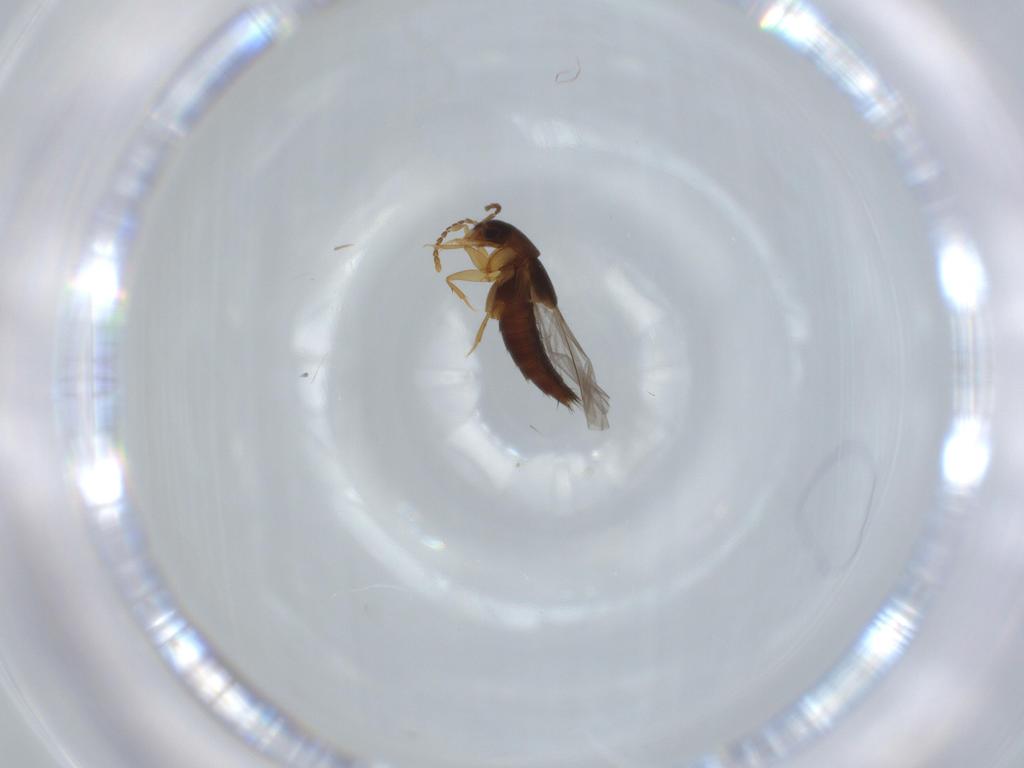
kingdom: Animalia
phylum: Arthropoda
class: Insecta
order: Coleoptera
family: Staphylinidae
